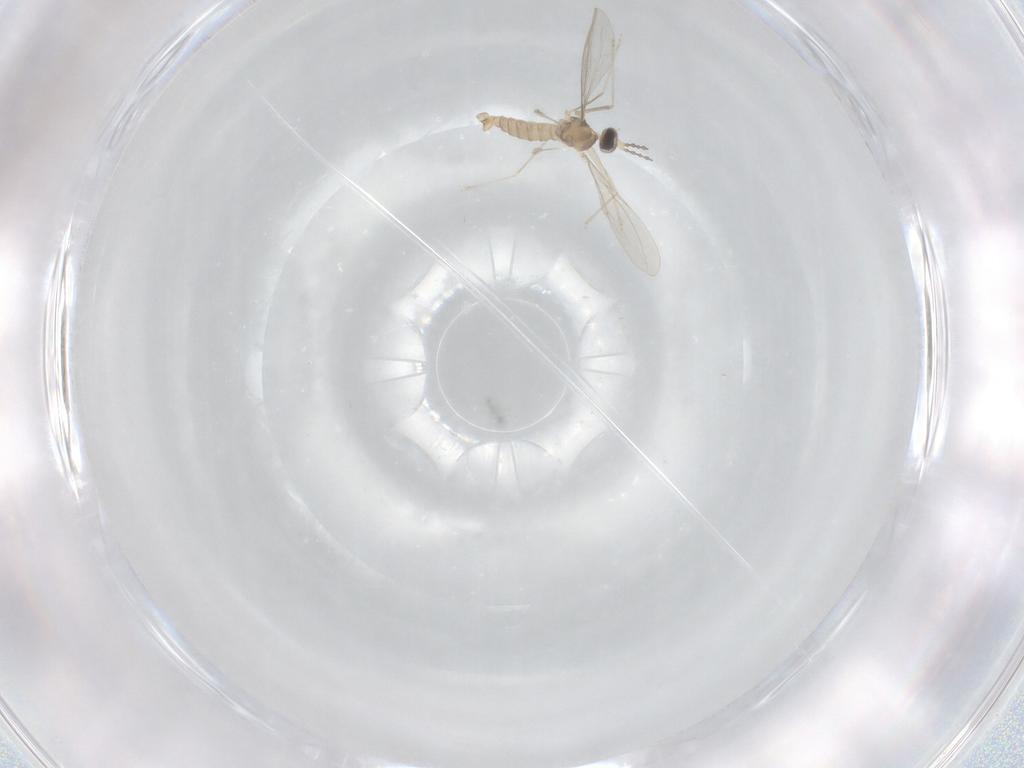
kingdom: Animalia
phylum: Arthropoda
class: Insecta
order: Diptera
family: Cecidomyiidae
